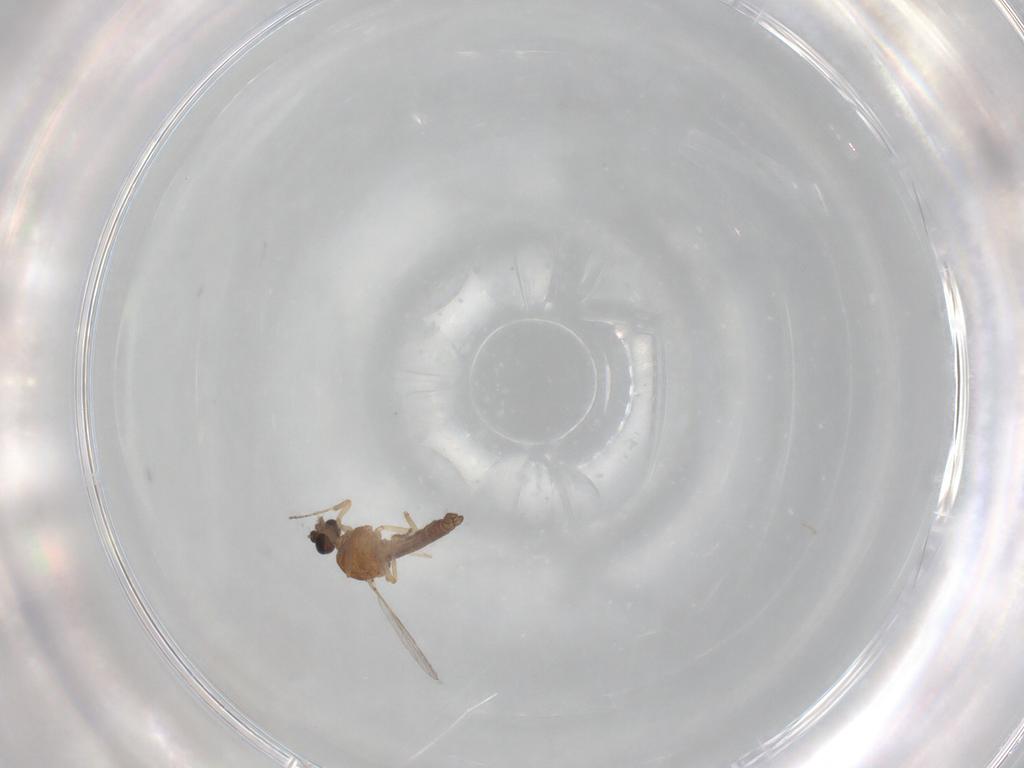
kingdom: Animalia
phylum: Arthropoda
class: Insecta
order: Diptera
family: Ceratopogonidae
